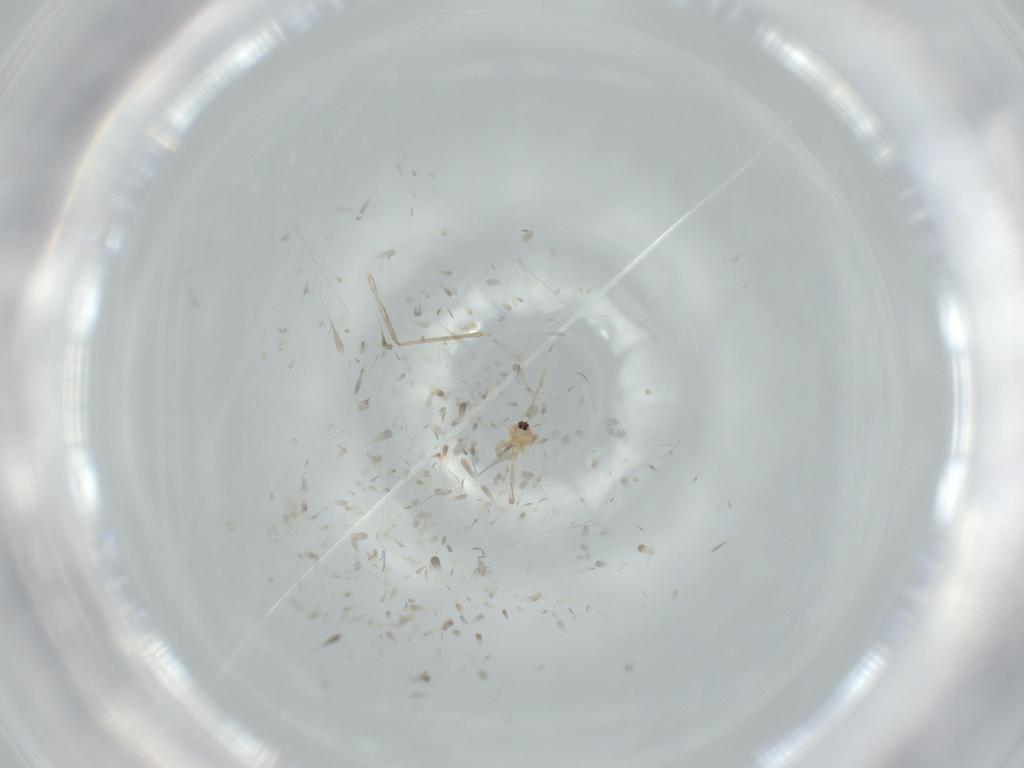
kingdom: Animalia
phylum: Arthropoda
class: Insecta
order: Diptera
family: Cecidomyiidae
